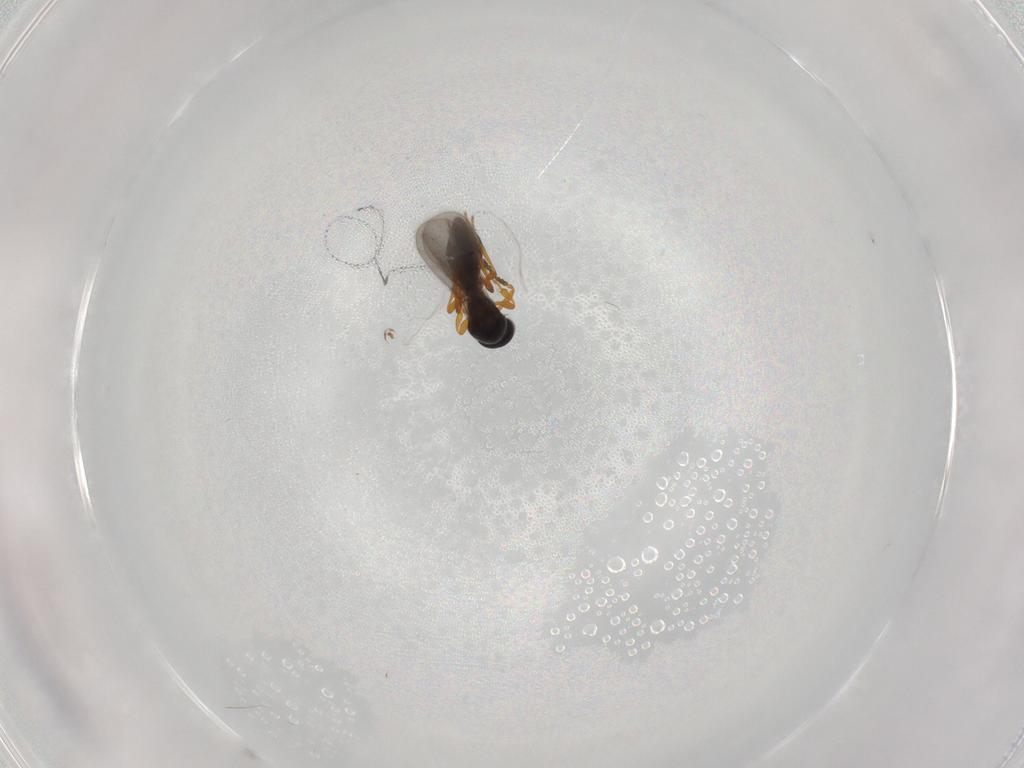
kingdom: Animalia
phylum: Arthropoda
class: Insecta
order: Hymenoptera
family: Platygastridae
